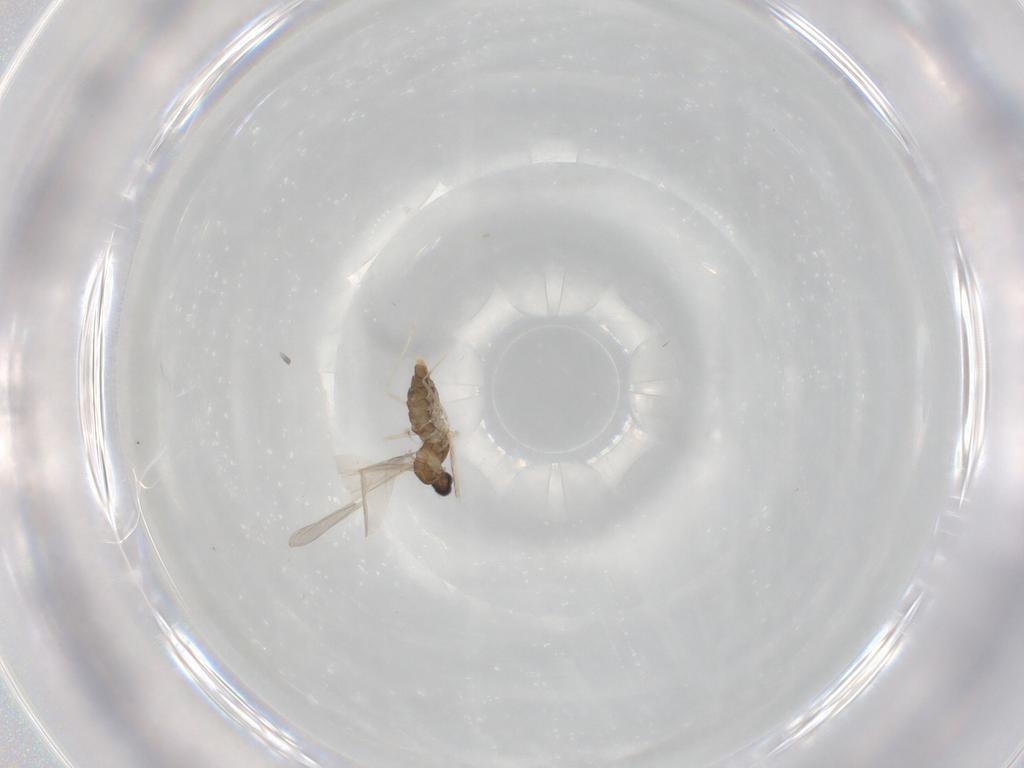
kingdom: Animalia
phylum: Arthropoda
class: Insecta
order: Diptera
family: Cecidomyiidae
